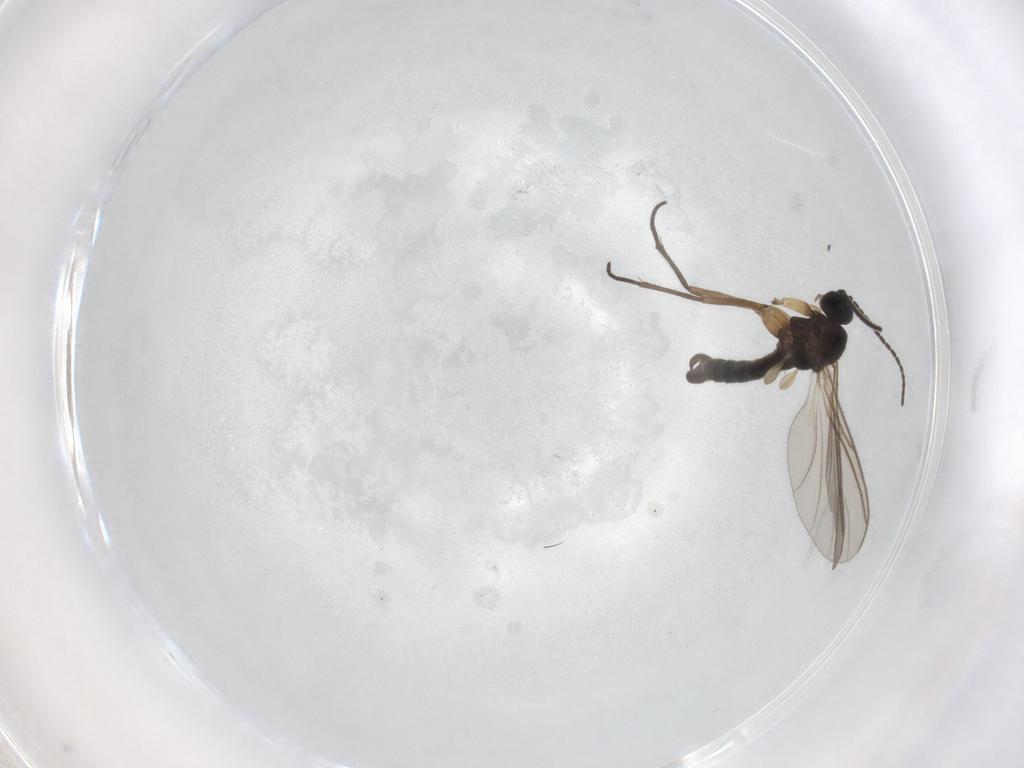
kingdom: Animalia
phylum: Arthropoda
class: Insecta
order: Diptera
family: Sciaridae
